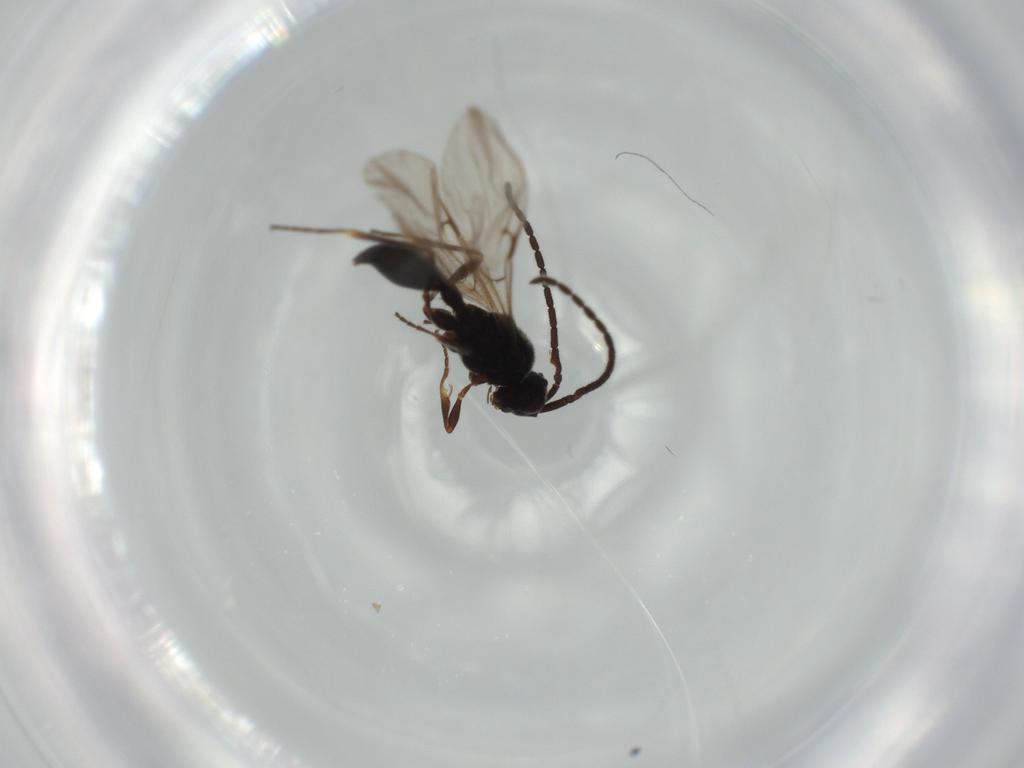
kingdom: Animalia
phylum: Arthropoda
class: Insecta
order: Diptera
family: Muscidae
